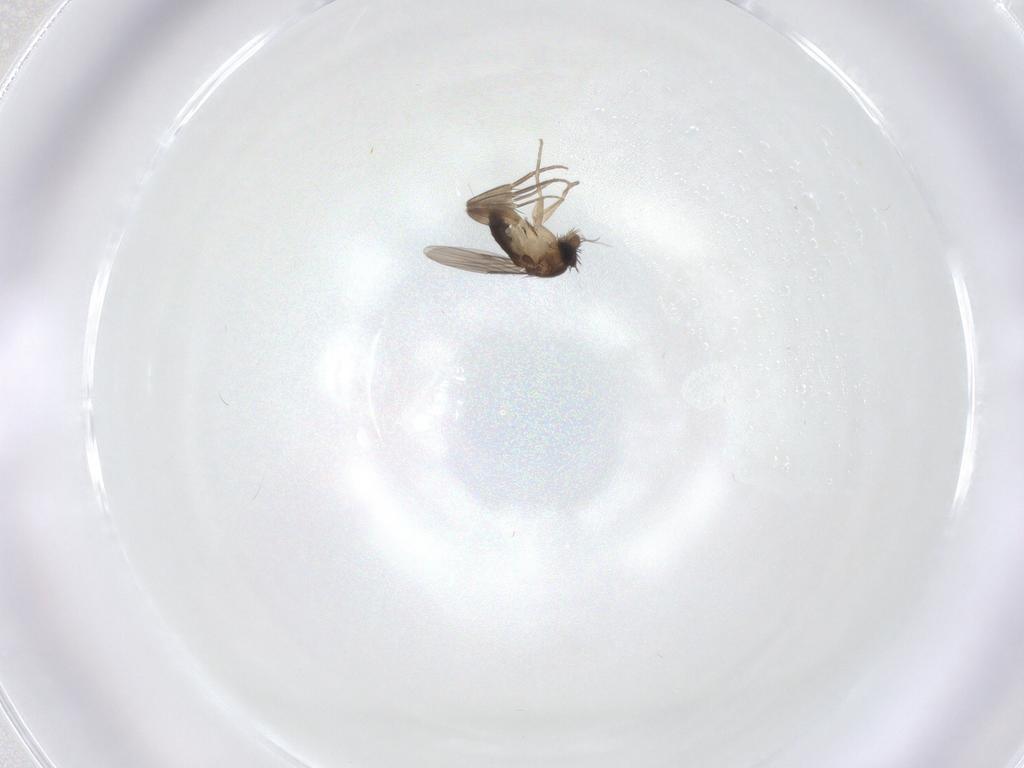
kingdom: Animalia
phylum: Arthropoda
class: Insecta
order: Diptera
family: Phoridae
